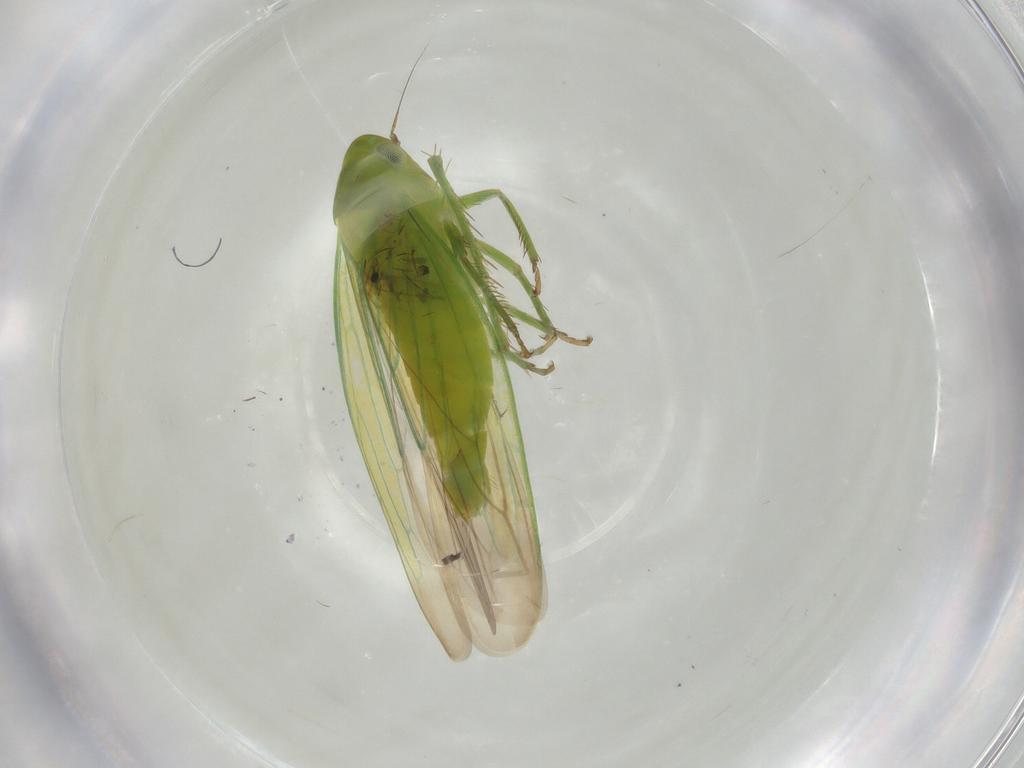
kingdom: Animalia
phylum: Arthropoda
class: Insecta
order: Hemiptera
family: Cicadellidae
